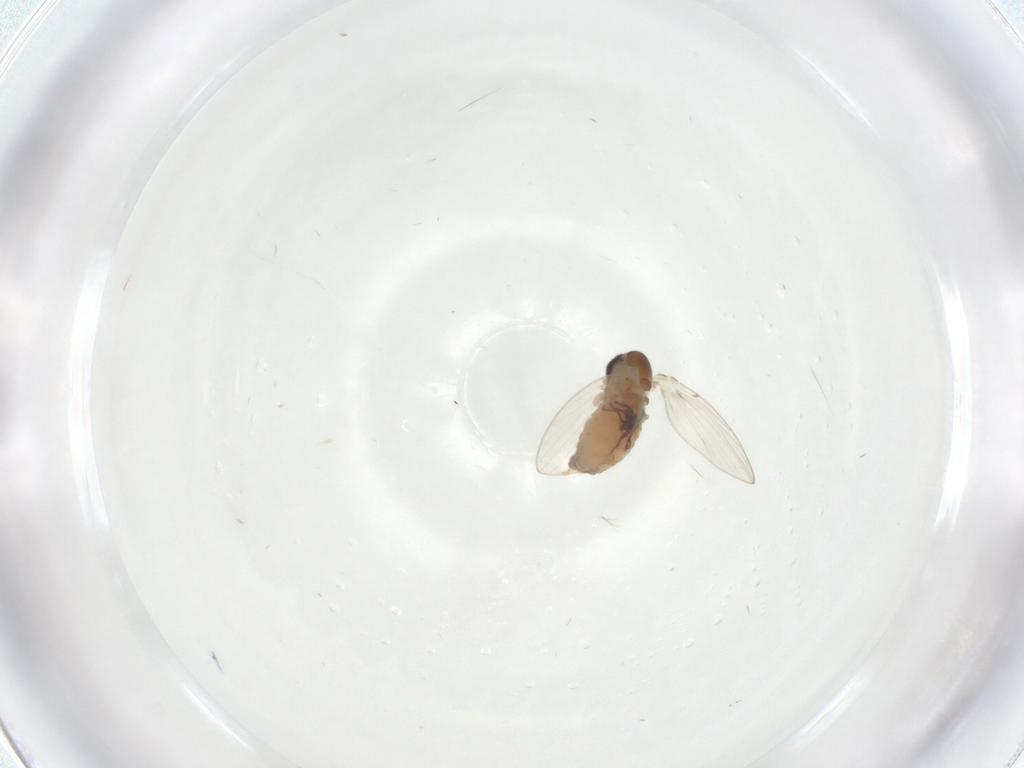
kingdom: Animalia
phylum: Arthropoda
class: Insecta
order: Diptera
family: Psychodidae
